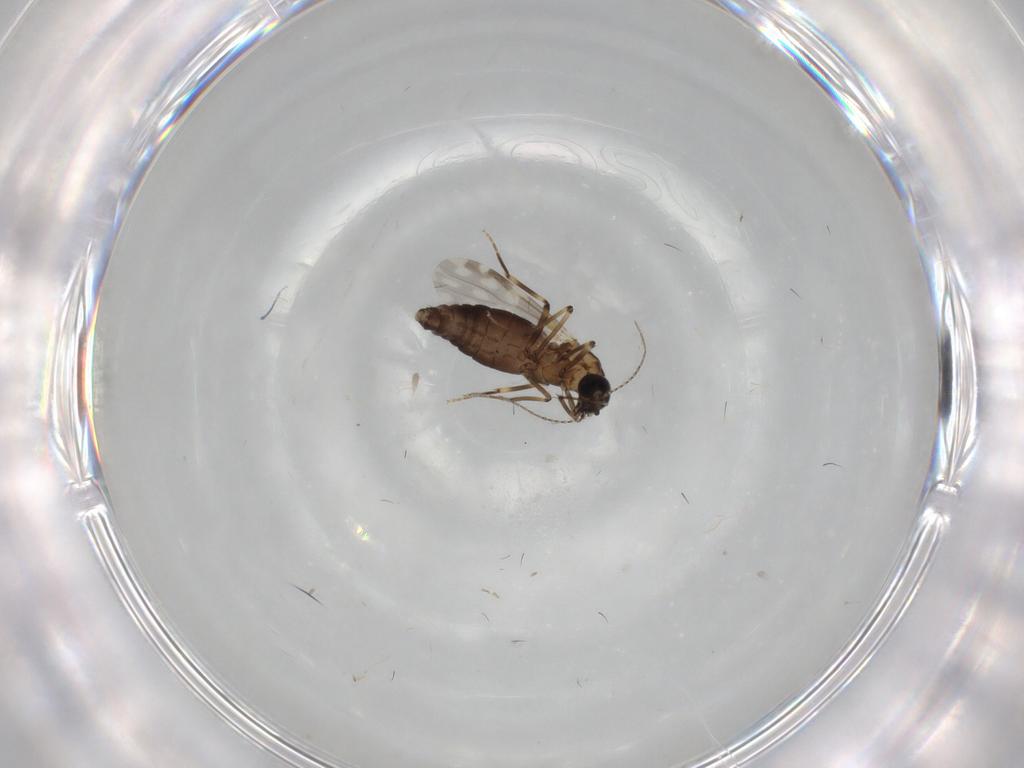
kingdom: Animalia
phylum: Arthropoda
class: Insecta
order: Diptera
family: Ceratopogonidae
